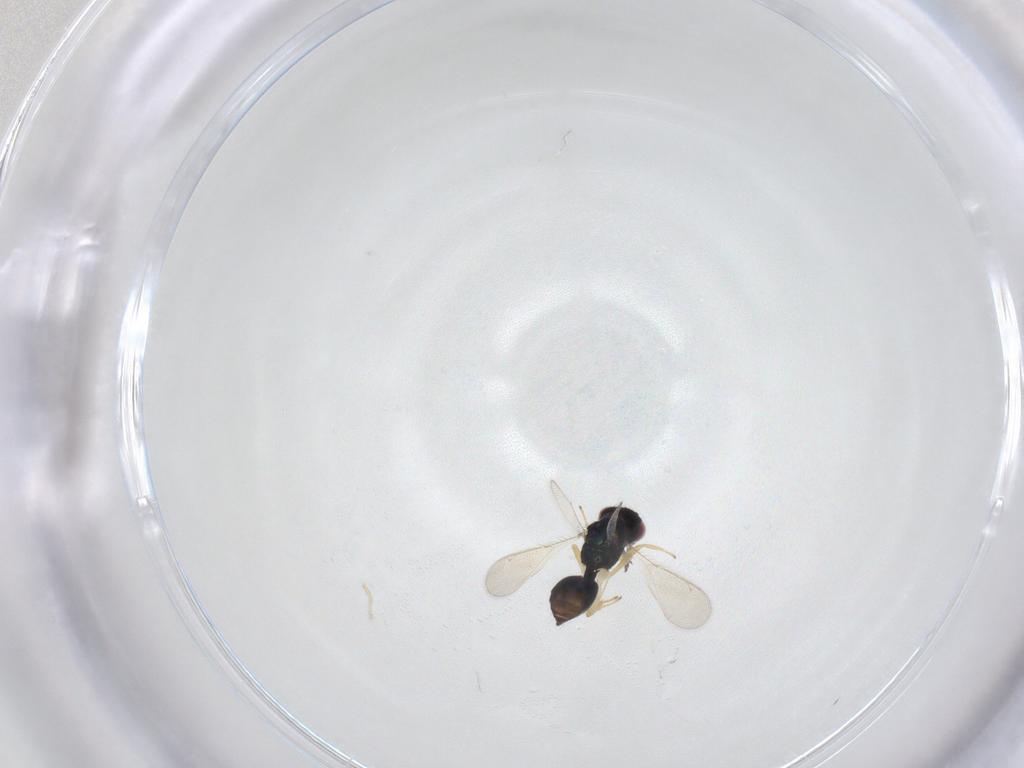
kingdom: Animalia
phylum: Arthropoda
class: Insecta
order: Hymenoptera
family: Eulophidae
